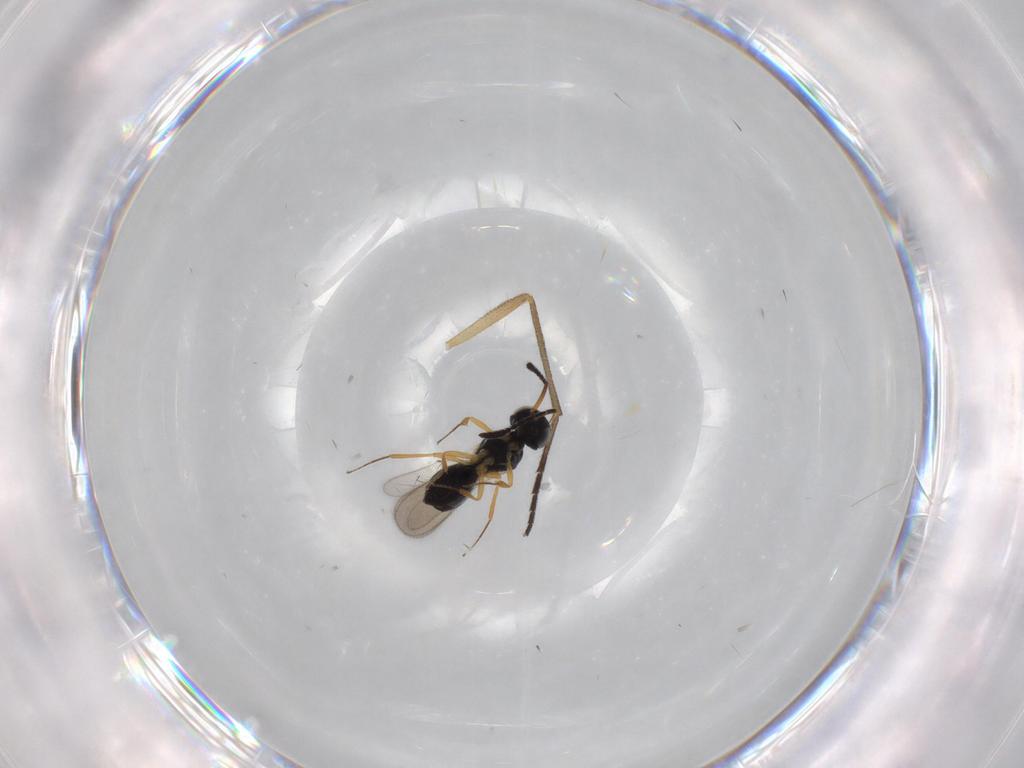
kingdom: Animalia
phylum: Arthropoda
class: Insecta
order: Hymenoptera
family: Scelionidae
